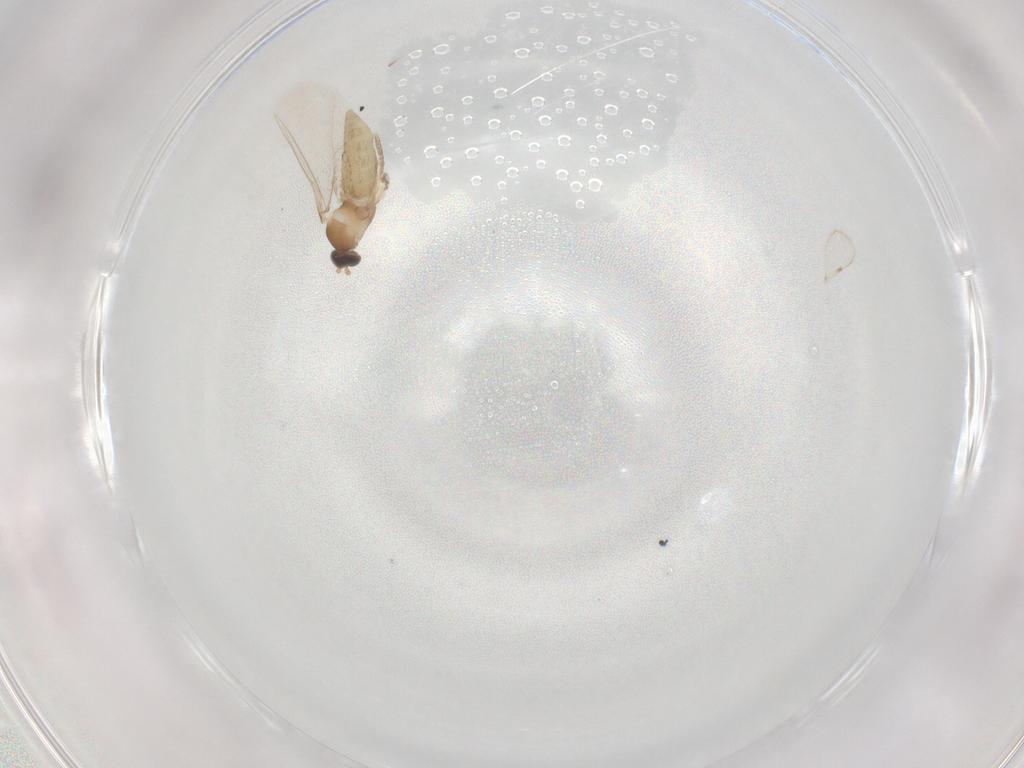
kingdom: Animalia
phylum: Arthropoda
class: Insecta
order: Diptera
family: Cecidomyiidae
